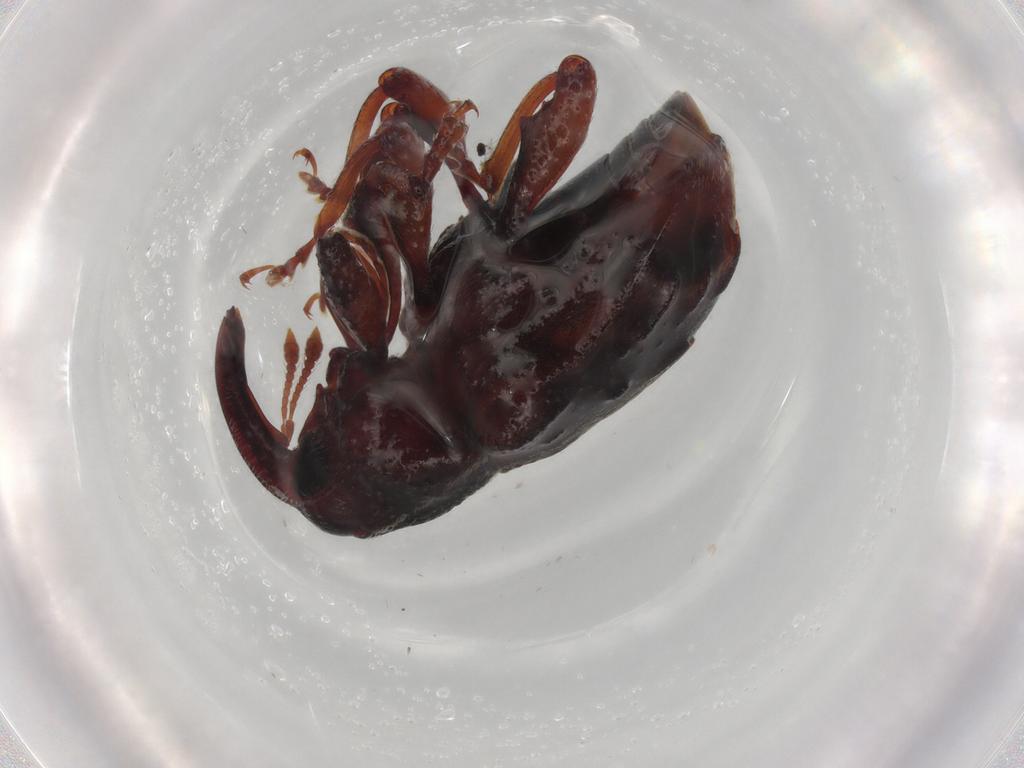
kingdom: Animalia
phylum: Arthropoda
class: Insecta
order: Coleoptera
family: Curculionidae
